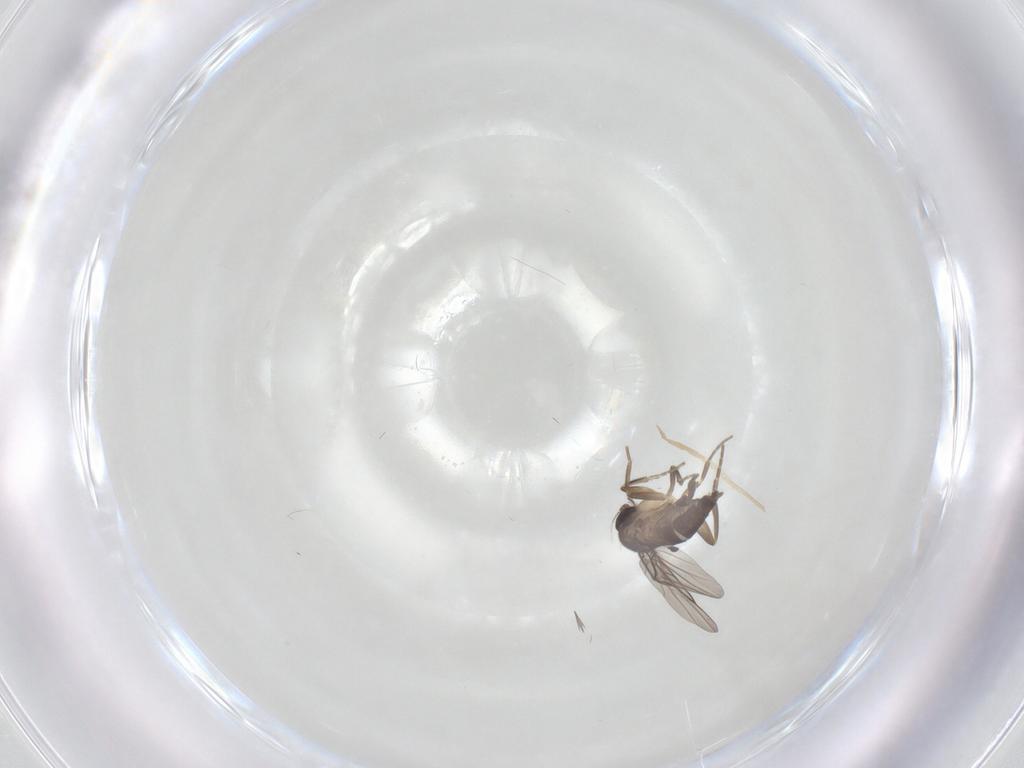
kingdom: Animalia
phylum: Arthropoda
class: Insecta
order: Diptera
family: Phoridae
